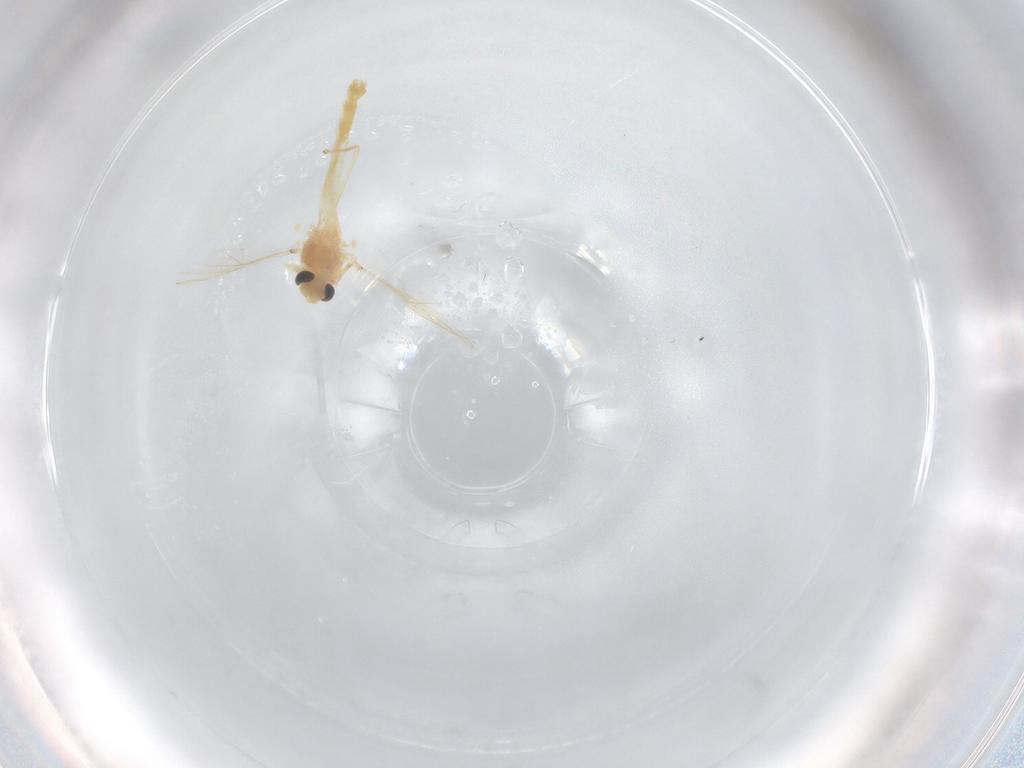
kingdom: Animalia
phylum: Arthropoda
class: Insecta
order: Diptera
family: Chironomidae
